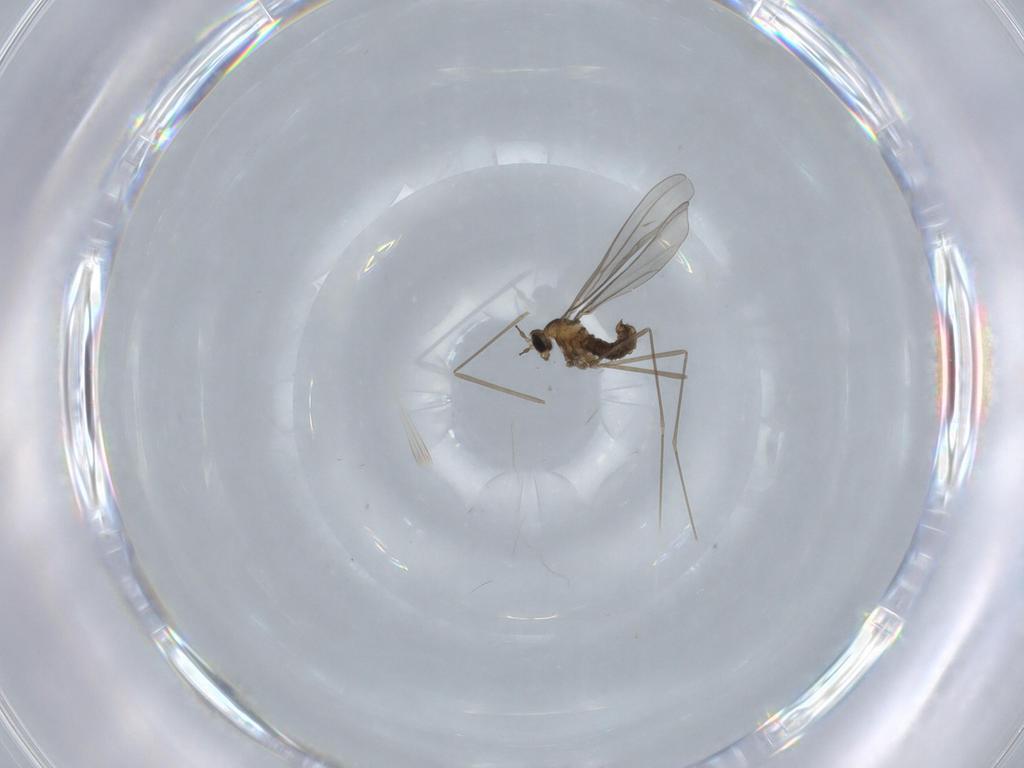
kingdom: Animalia
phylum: Arthropoda
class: Insecta
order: Diptera
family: Cecidomyiidae
